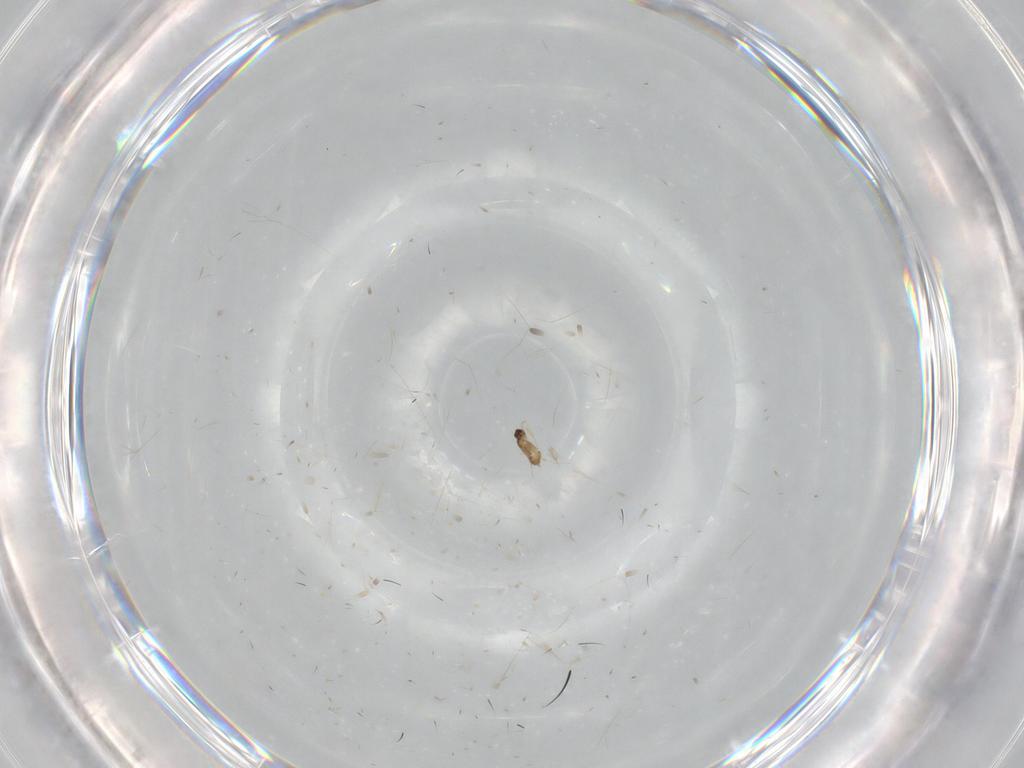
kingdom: Animalia
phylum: Arthropoda
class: Insecta
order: Hymenoptera
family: Mymaridae
